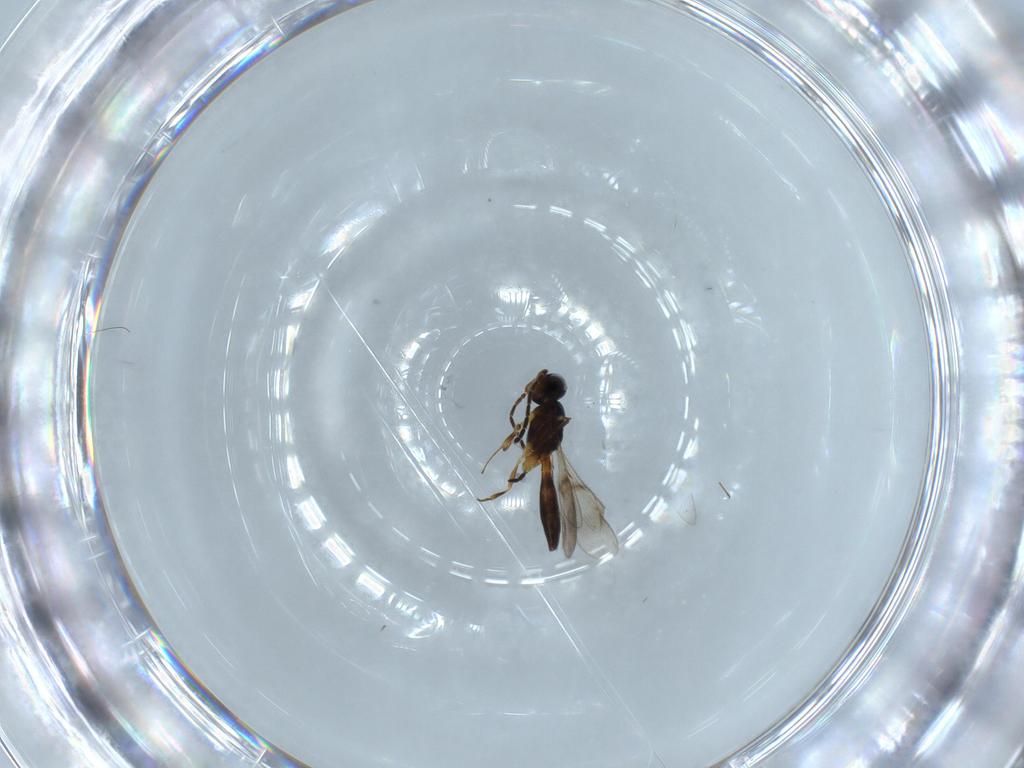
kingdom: Animalia
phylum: Arthropoda
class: Insecta
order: Hymenoptera
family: Scelionidae
